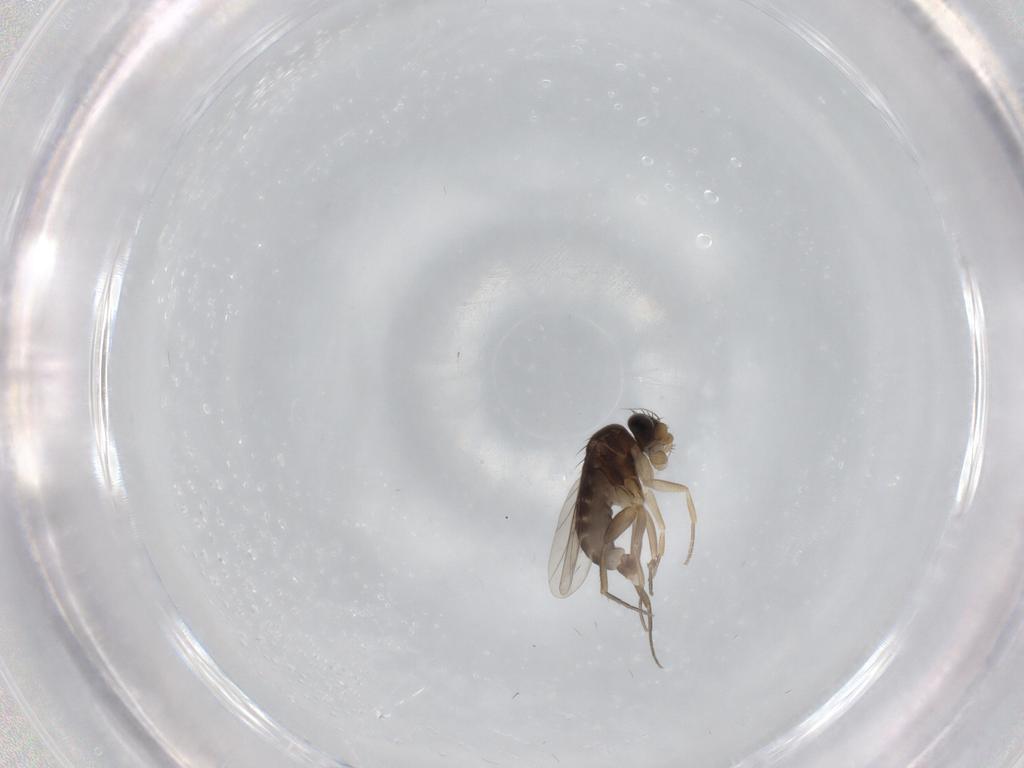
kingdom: Animalia
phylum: Arthropoda
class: Insecta
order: Diptera
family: Phoridae
